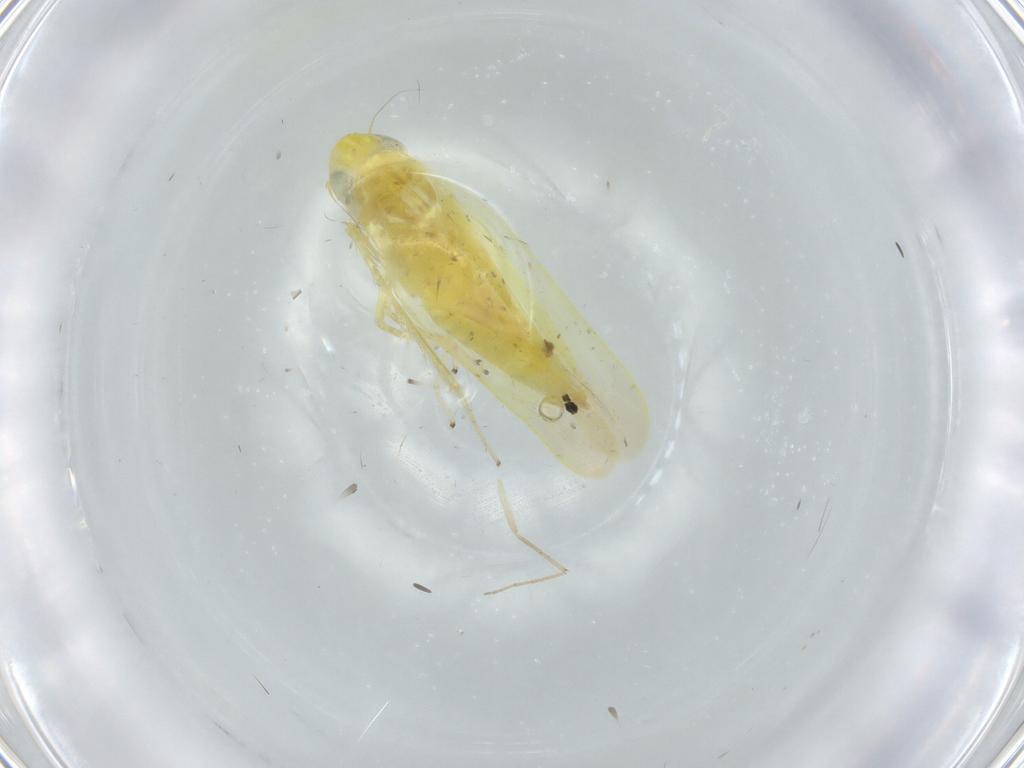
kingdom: Animalia
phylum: Arthropoda
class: Insecta
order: Hemiptera
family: Cicadellidae
